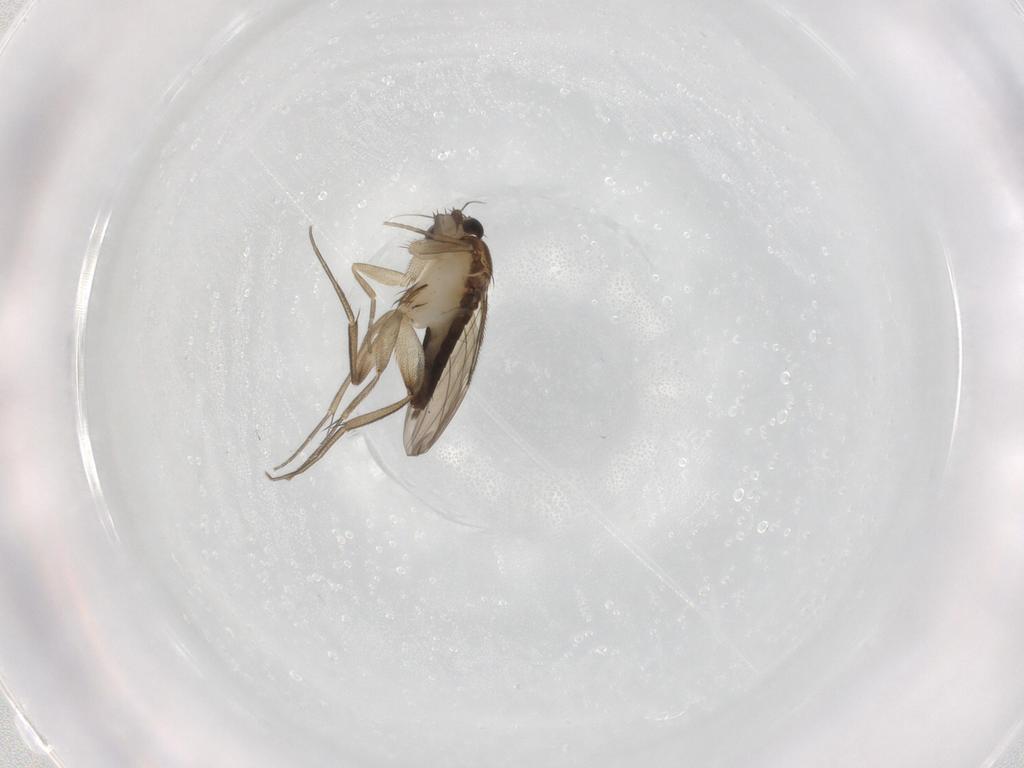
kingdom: Animalia
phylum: Arthropoda
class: Insecta
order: Diptera
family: Phoridae
